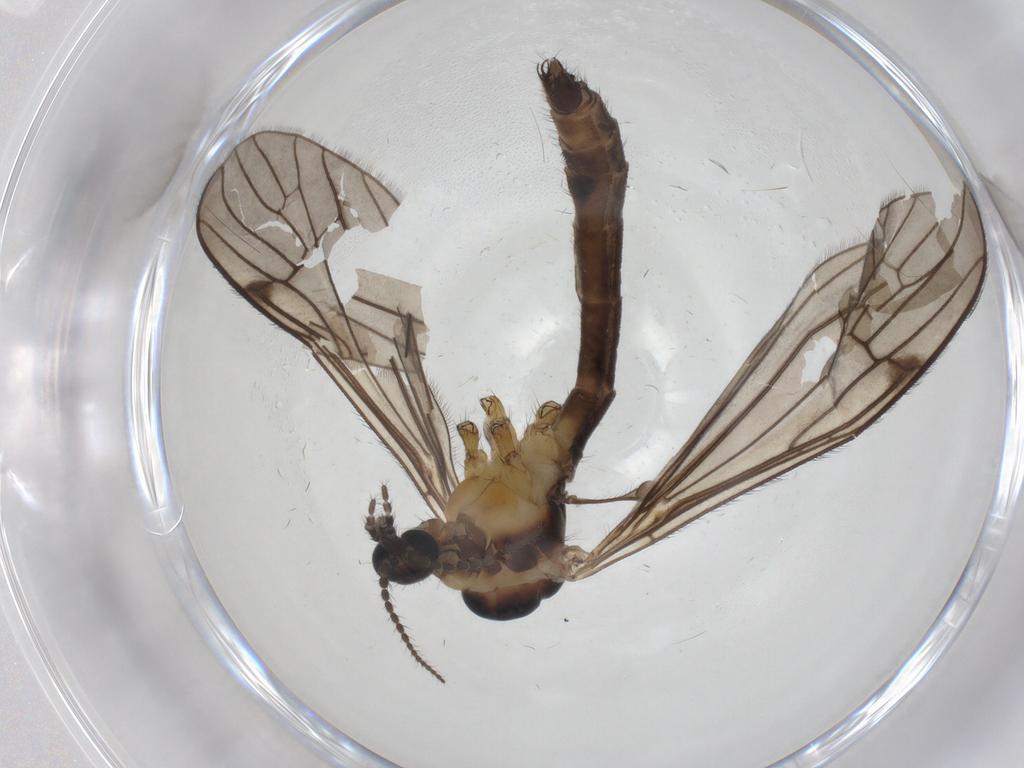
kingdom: Animalia
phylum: Arthropoda
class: Insecta
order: Diptera
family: Limoniidae
